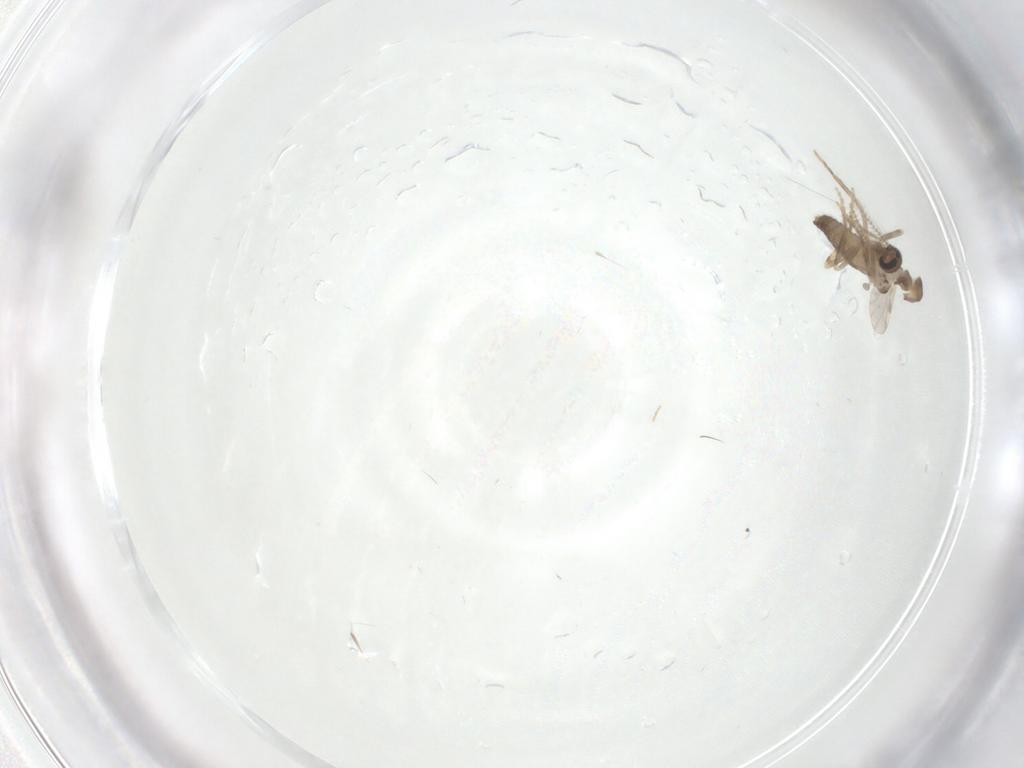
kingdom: Animalia
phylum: Arthropoda
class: Insecta
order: Diptera
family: Ceratopogonidae
